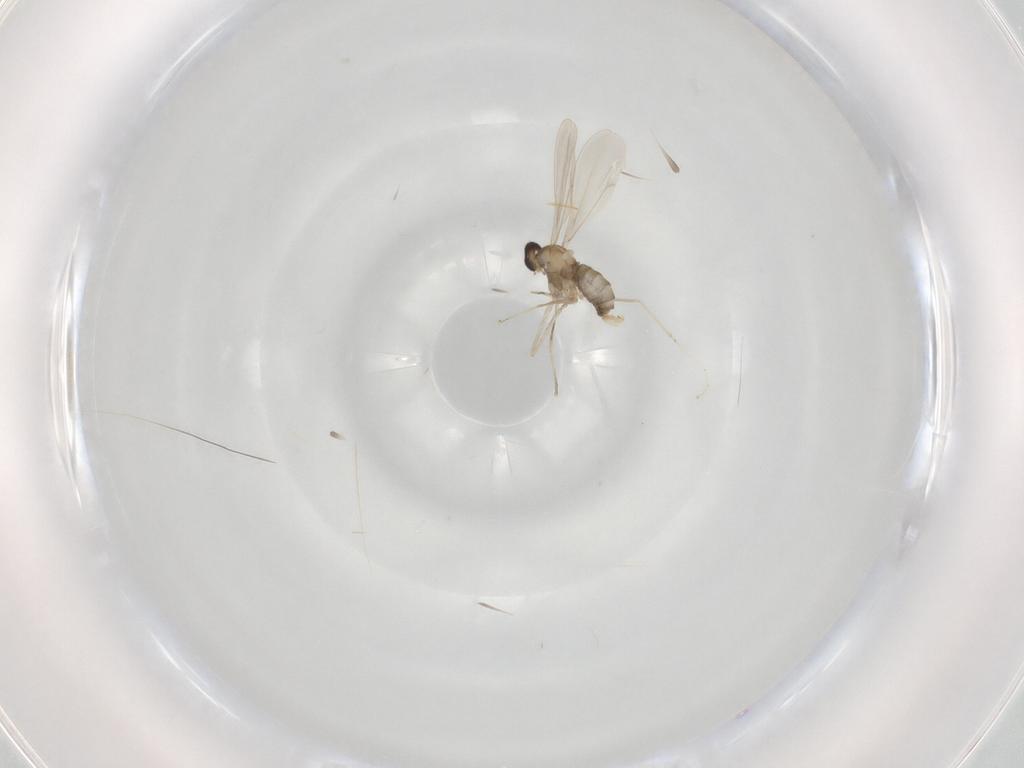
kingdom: Animalia
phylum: Arthropoda
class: Insecta
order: Diptera
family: Cecidomyiidae
